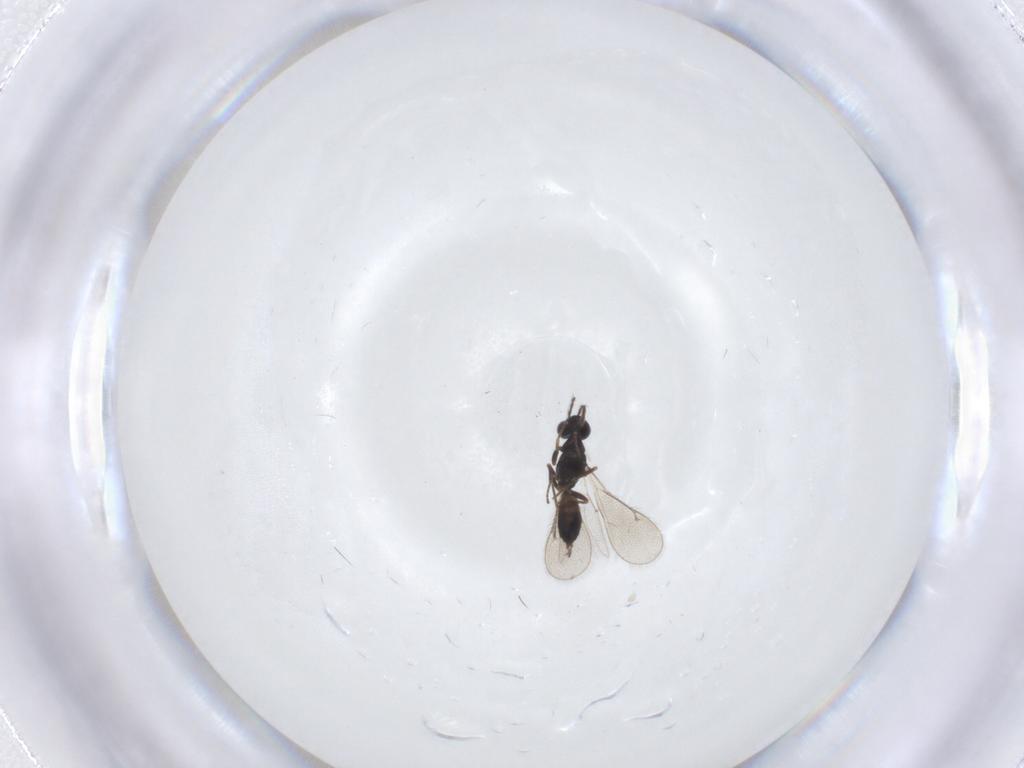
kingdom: Animalia
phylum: Arthropoda
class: Insecta
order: Hymenoptera
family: Eulophidae
